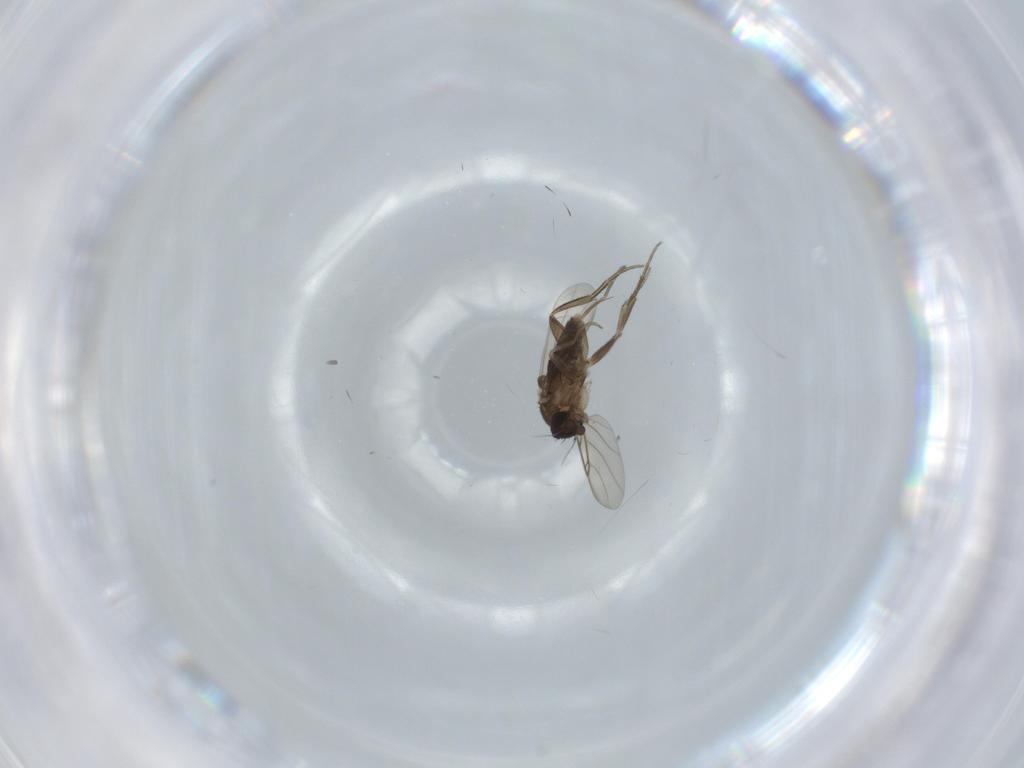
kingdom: Animalia
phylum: Arthropoda
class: Insecta
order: Diptera
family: Phoridae
